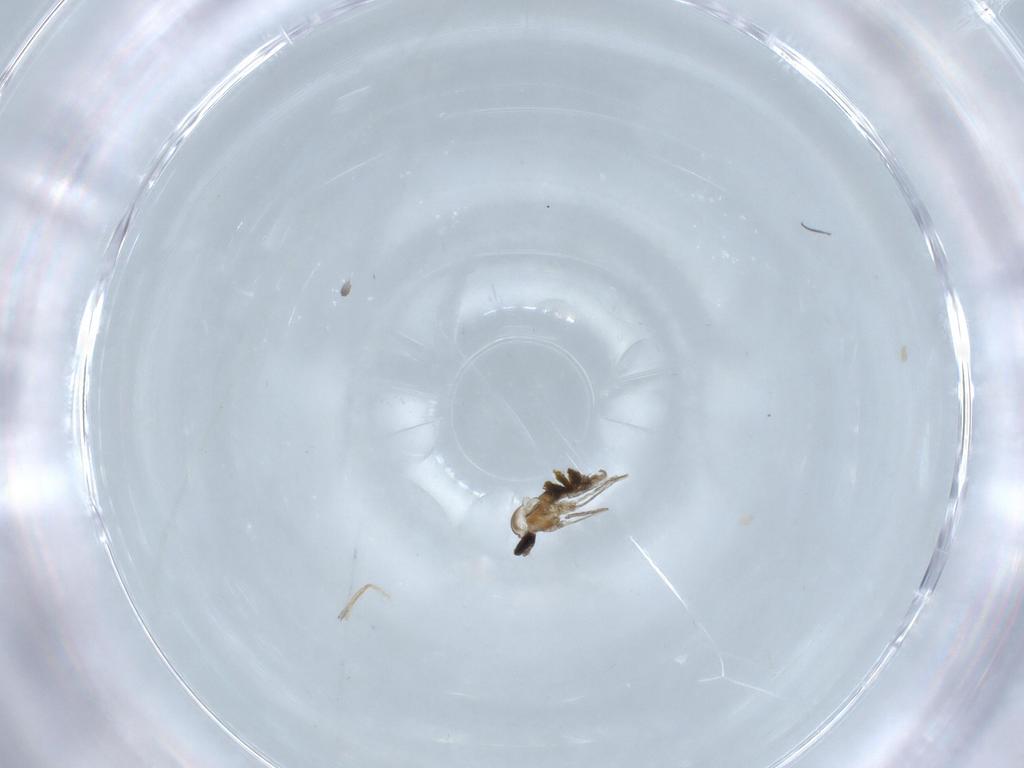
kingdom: Animalia
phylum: Arthropoda
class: Insecta
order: Diptera
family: Cecidomyiidae
